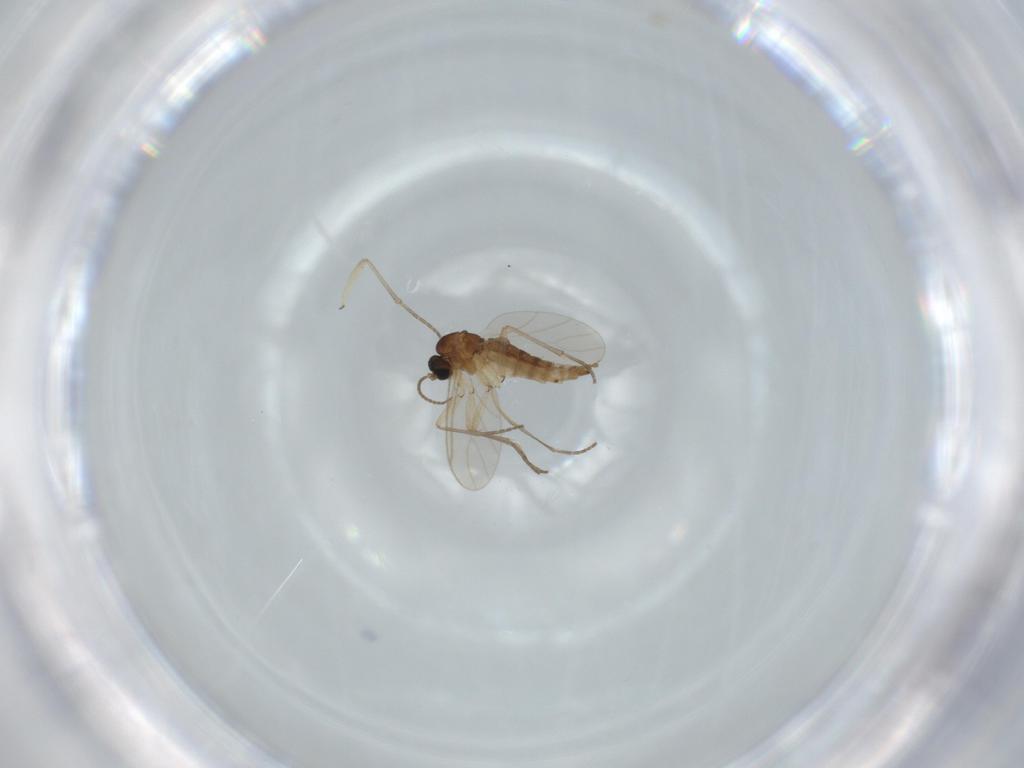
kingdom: Animalia
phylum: Arthropoda
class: Insecta
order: Diptera
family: Sciaridae
